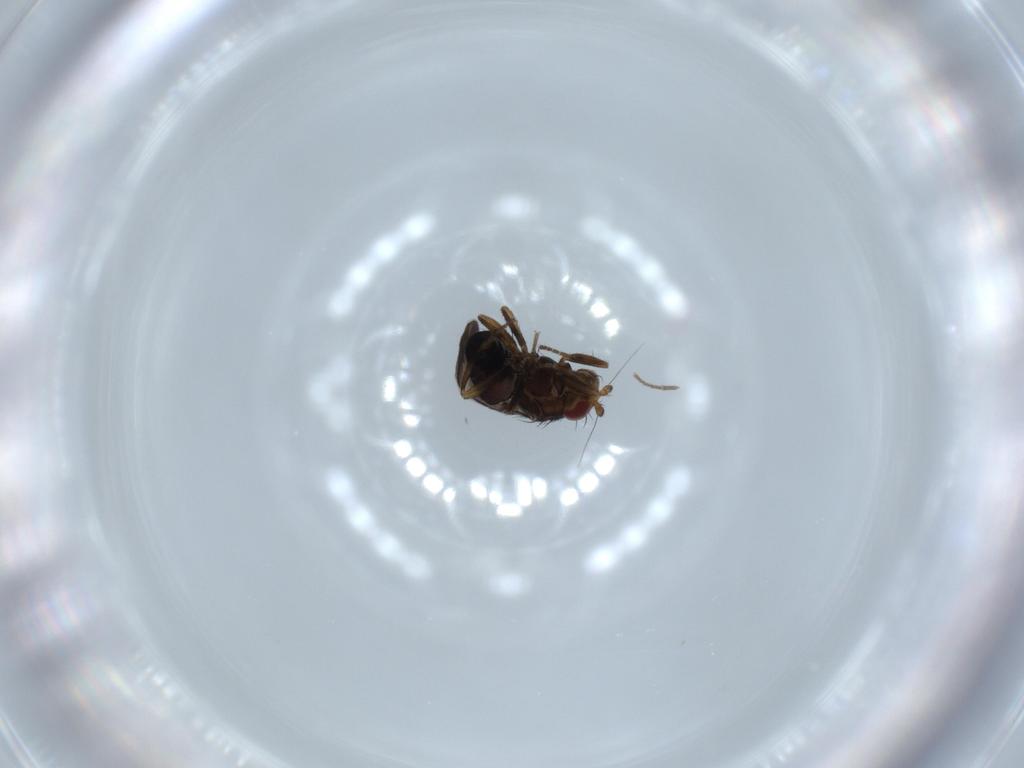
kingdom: Animalia
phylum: Arthropoda
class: Insecta
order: Diptera
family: Sphaeroceridae
